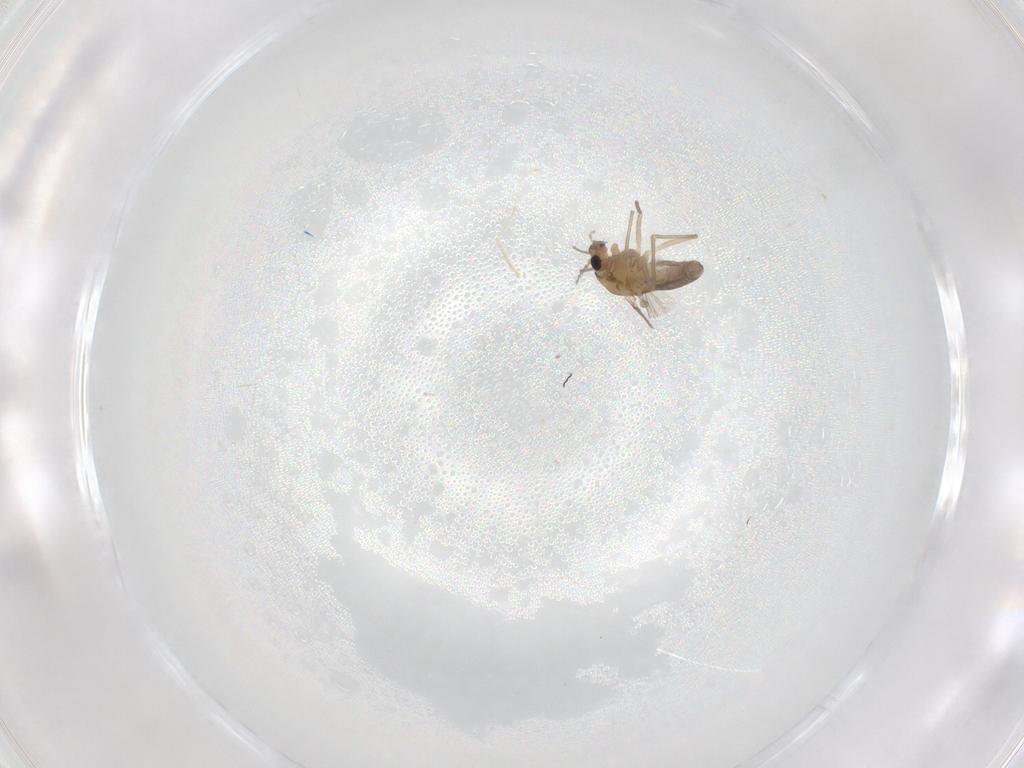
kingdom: Animalia
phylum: Arthropoda
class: Insecta
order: Diptera
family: Chironomidae
